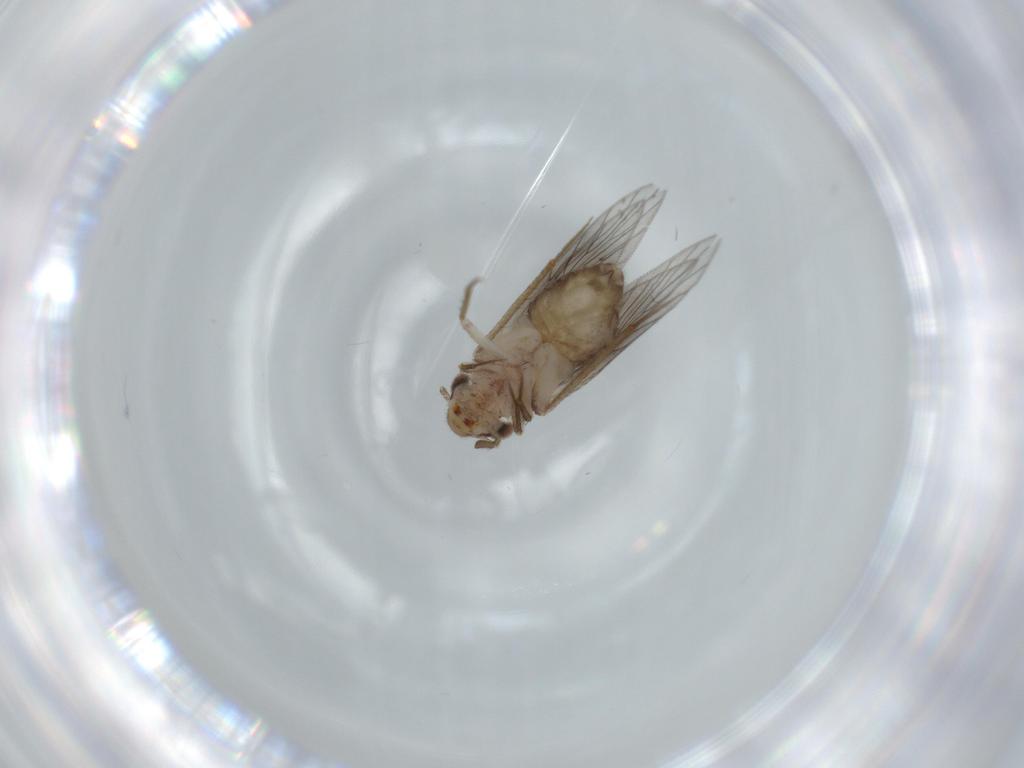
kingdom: Animalia
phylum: Arthropoda
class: Insecta
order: Psocodea
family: Lepidopsocidae
